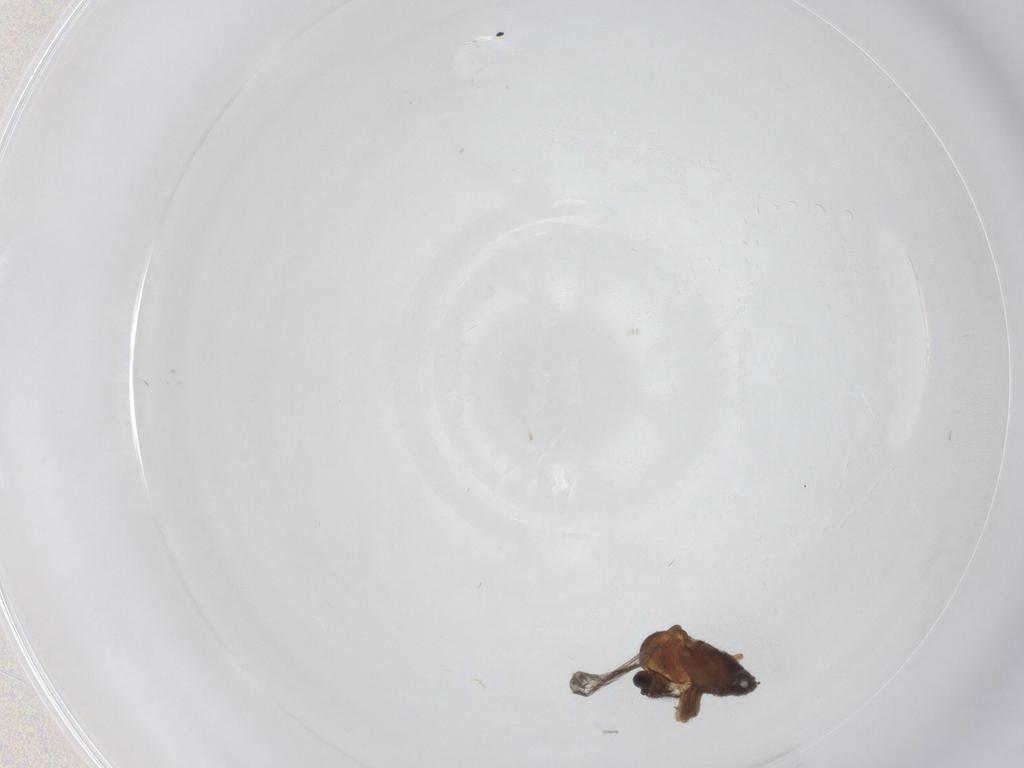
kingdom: Animalia
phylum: Arthropoda
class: Insecta
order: Diptera
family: Ceratopogonidae
